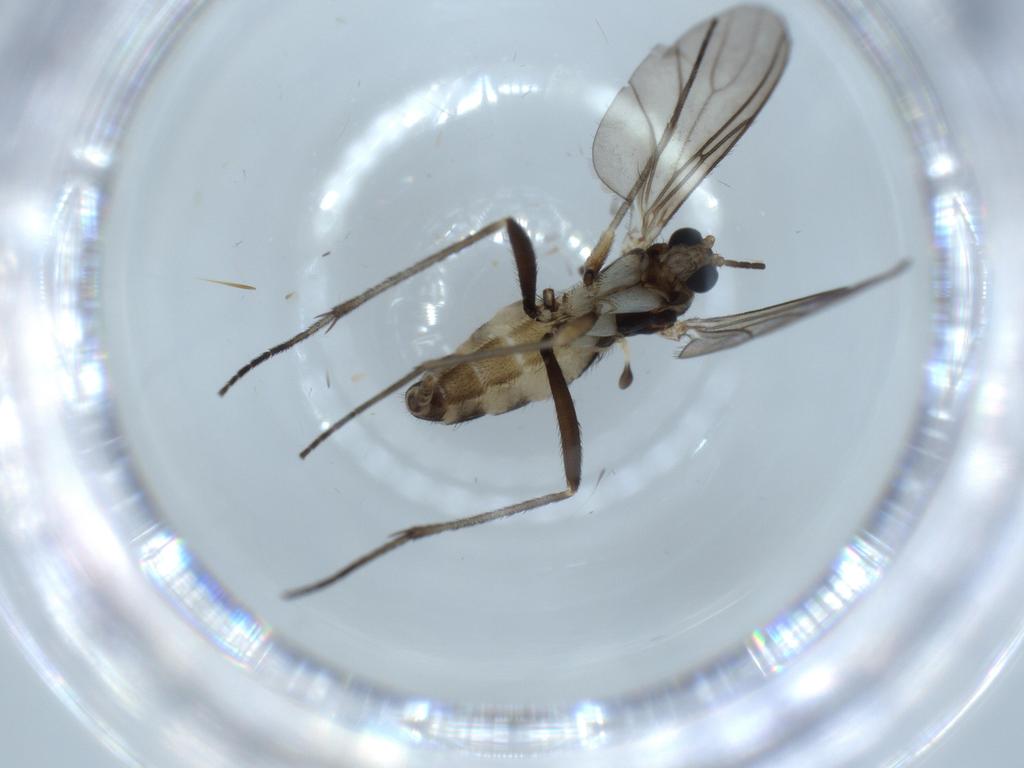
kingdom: Animalia
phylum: Arthropoda
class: Insecta
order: Diptera
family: Sciaridae
